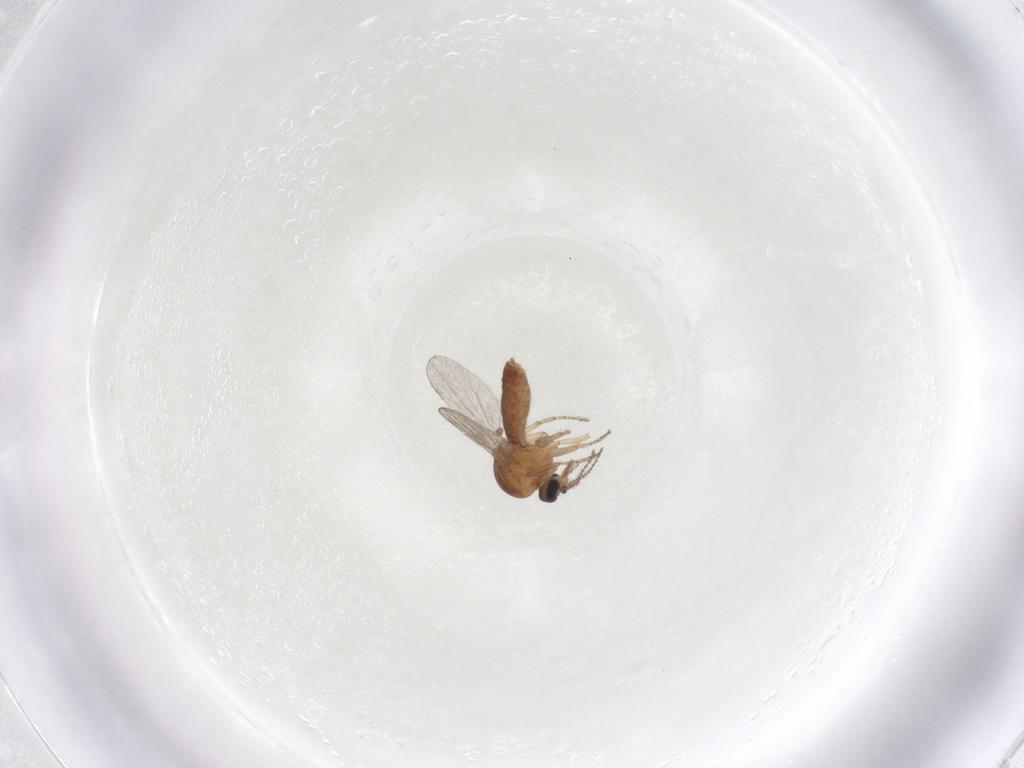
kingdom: Animalia
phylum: Arthropoda
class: Insecta
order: Diptera
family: Ceratopogonidae
